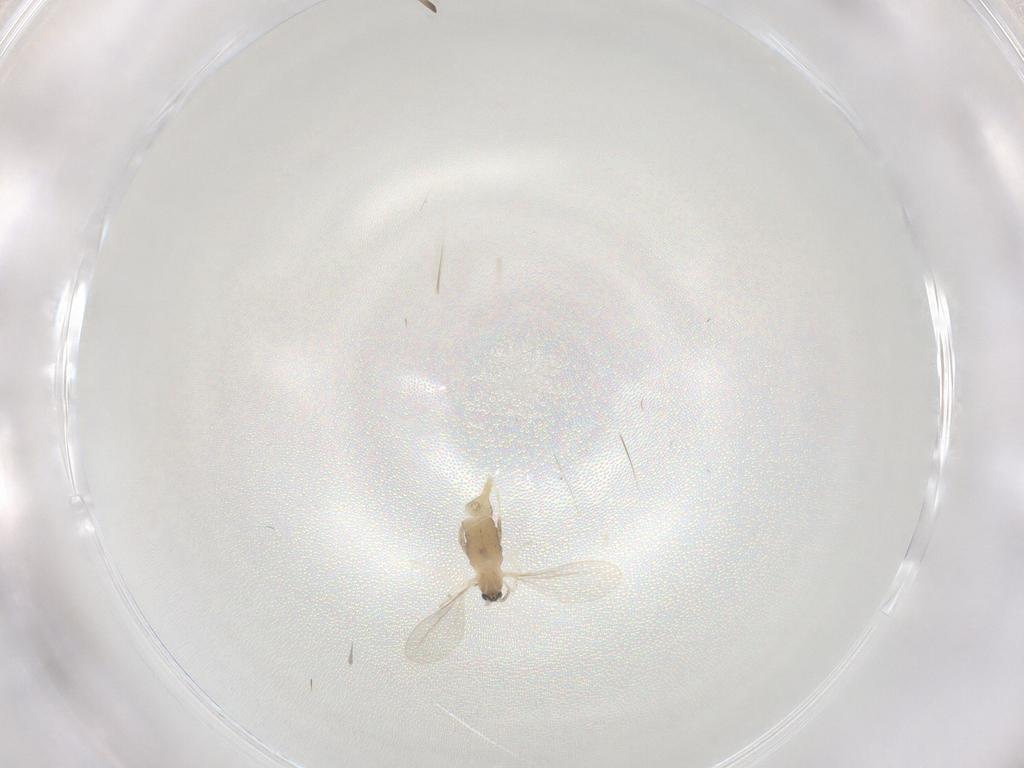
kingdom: Animalia
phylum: Arthropoda
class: Insecta
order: Diptera
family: Cecidomyiidae
